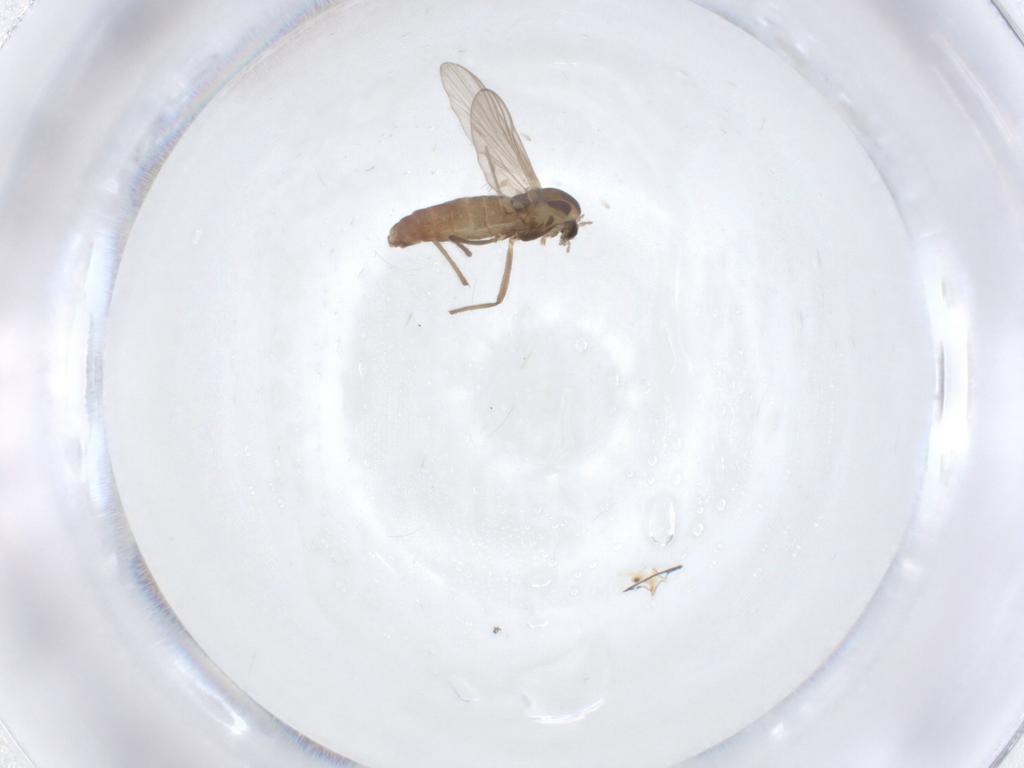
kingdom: Animalia
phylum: Arthropoda
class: Insecta
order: Diptera
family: Chironomidae
